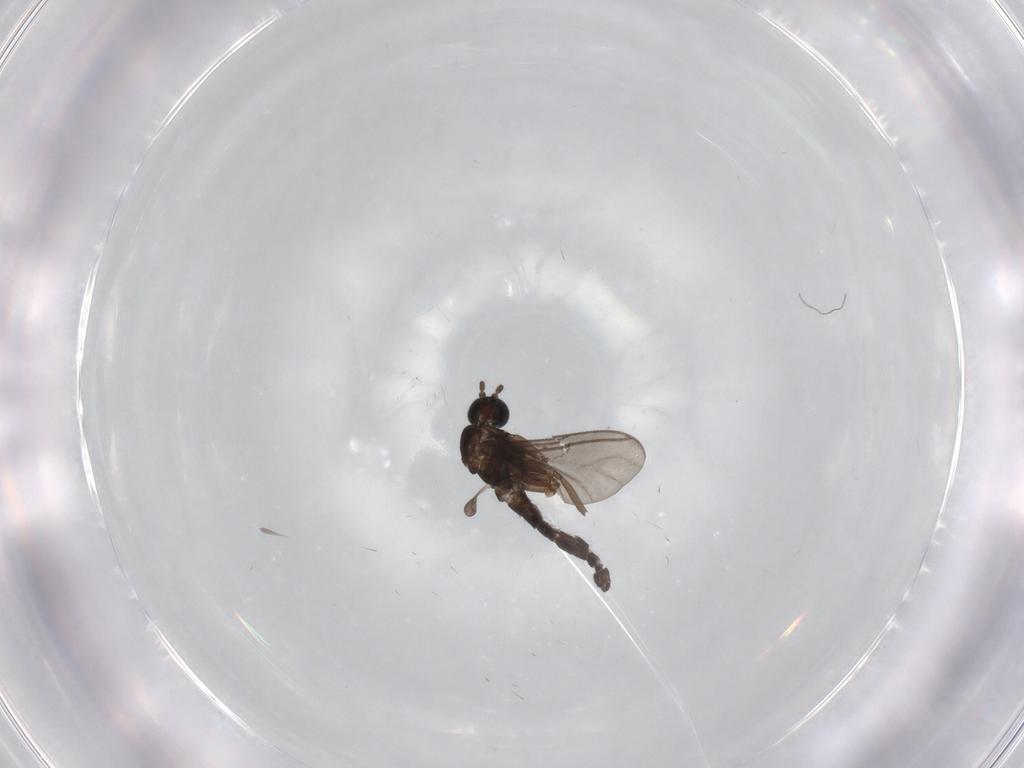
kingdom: Animalia
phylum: Arthropoda
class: Insecta
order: Diptera
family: Sciaridae
